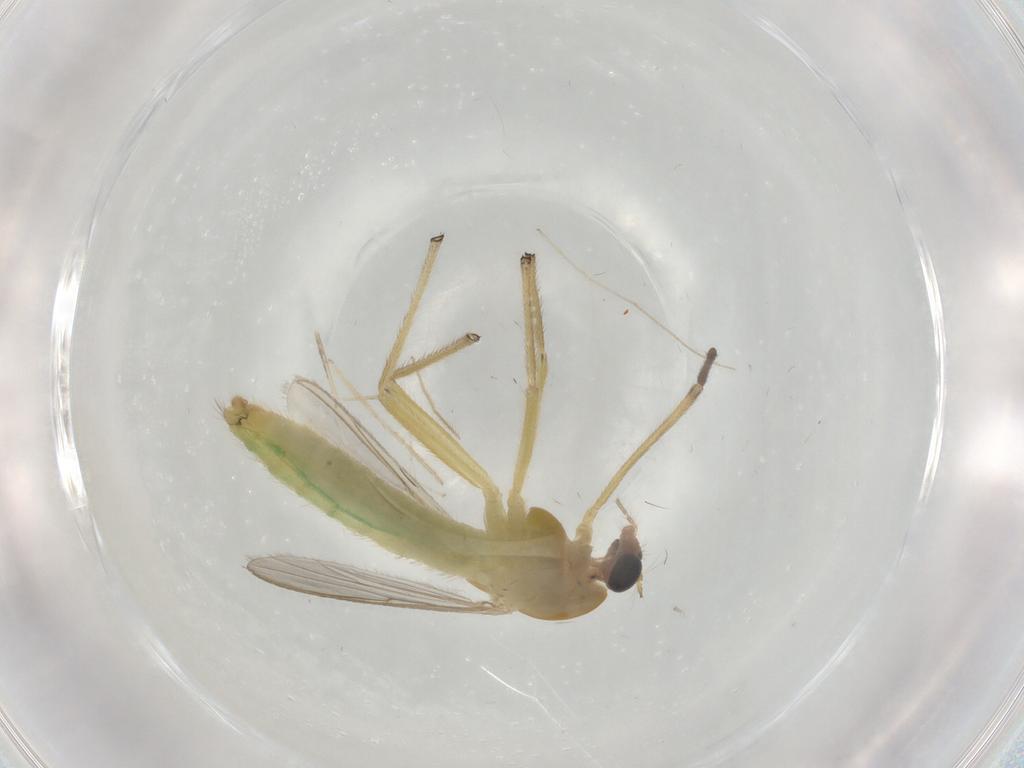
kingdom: Animalia
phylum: Arthropoda
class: Insecta
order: Diptera
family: Chironomidae
